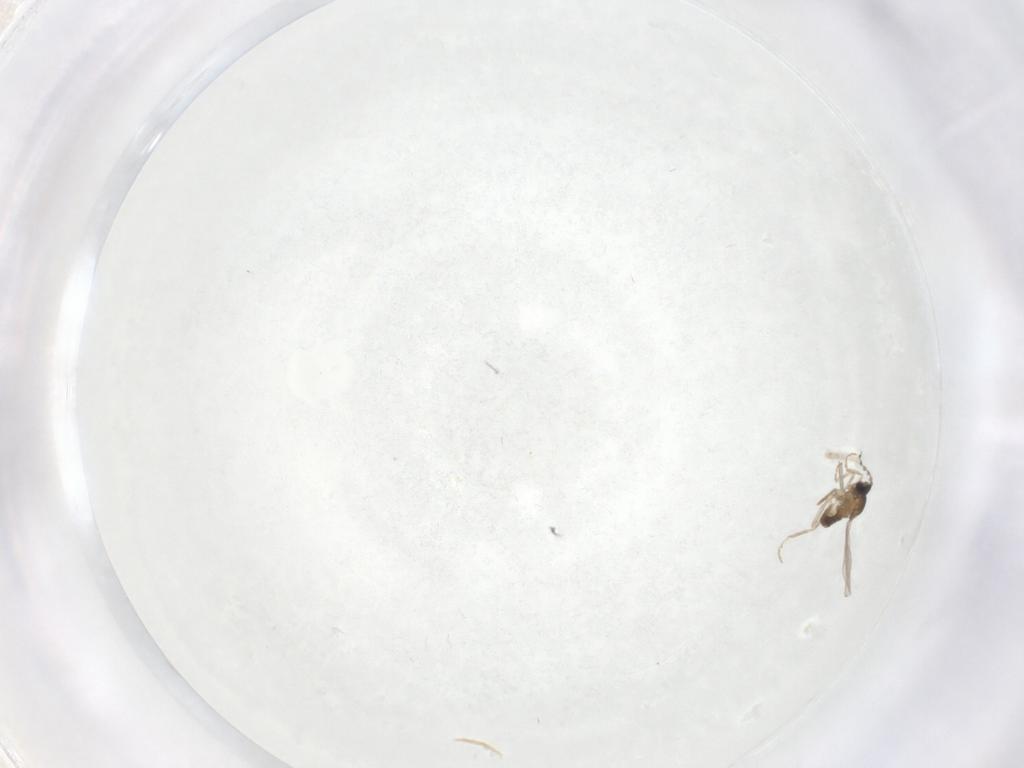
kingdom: Animalia
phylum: Arthropoda
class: Insecta
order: Diptera
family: Cecidomyiidae
